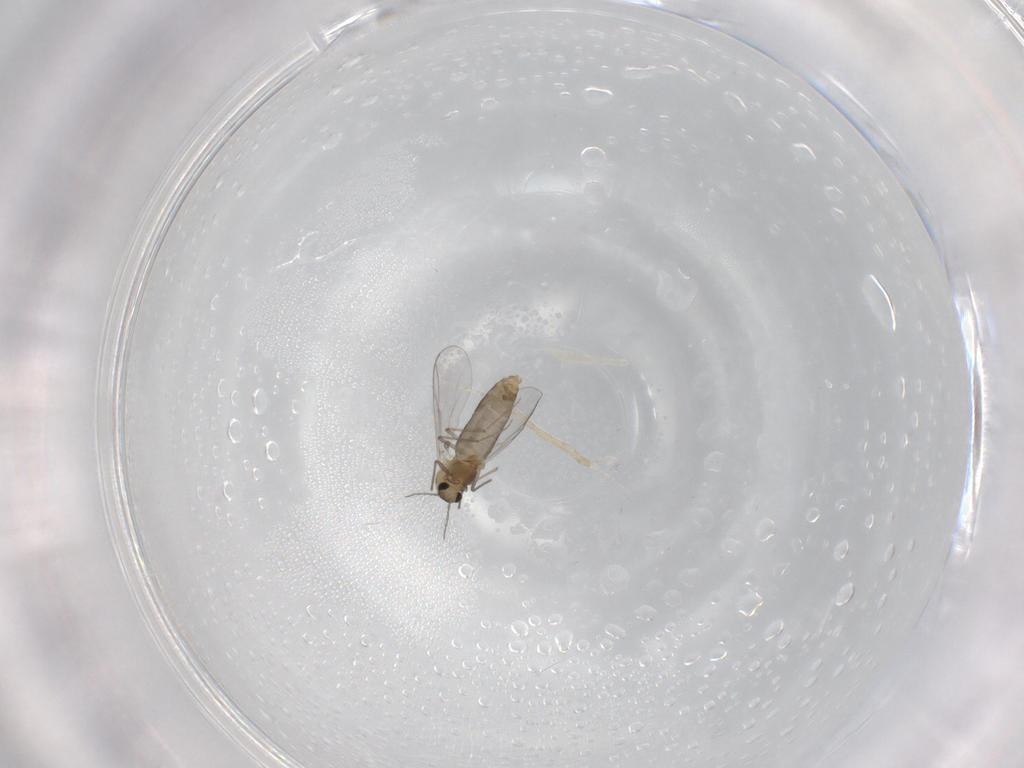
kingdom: Animalia
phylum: Arthropoda
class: Insecta
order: Diptera
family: Chironomidae
